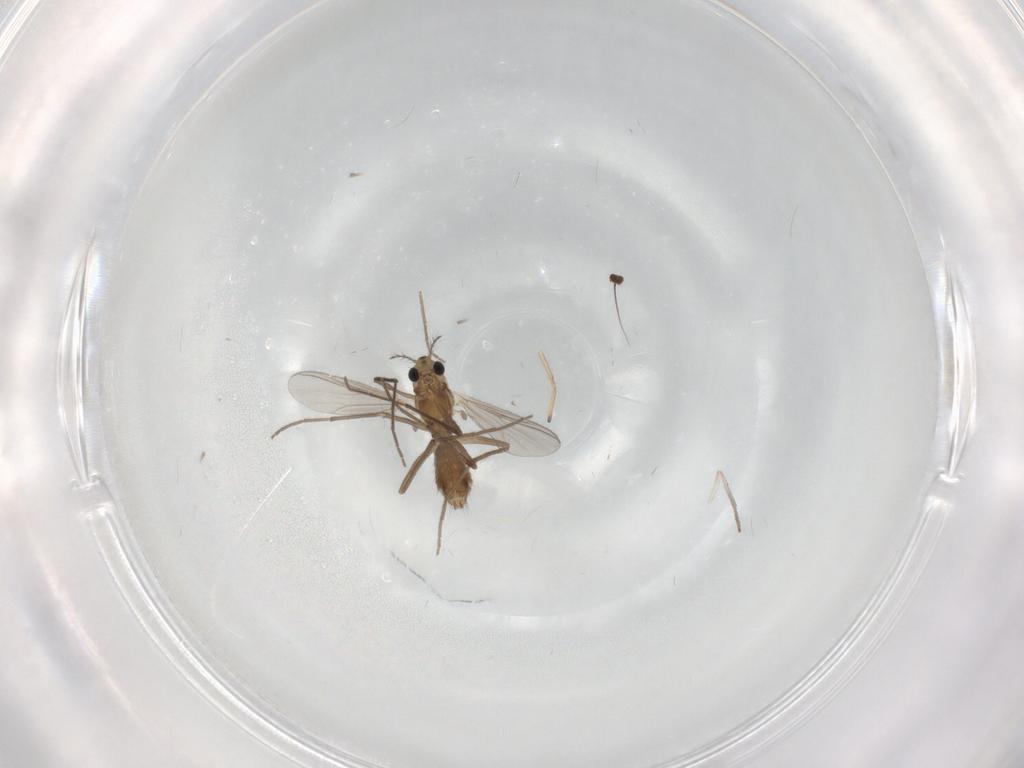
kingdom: Animalia
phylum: Arthropoda
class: Insecta
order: Diptera
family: Chironomidae
